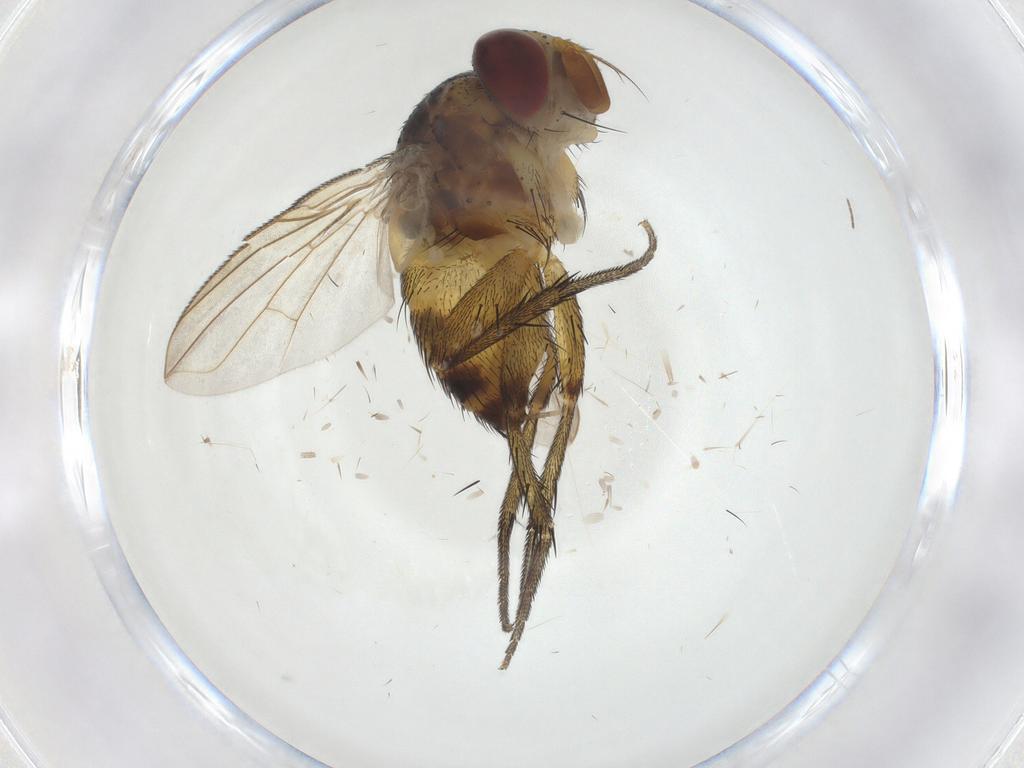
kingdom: Animalia
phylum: Arthropoda
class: Insecta
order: Diptera
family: Tachinidae
